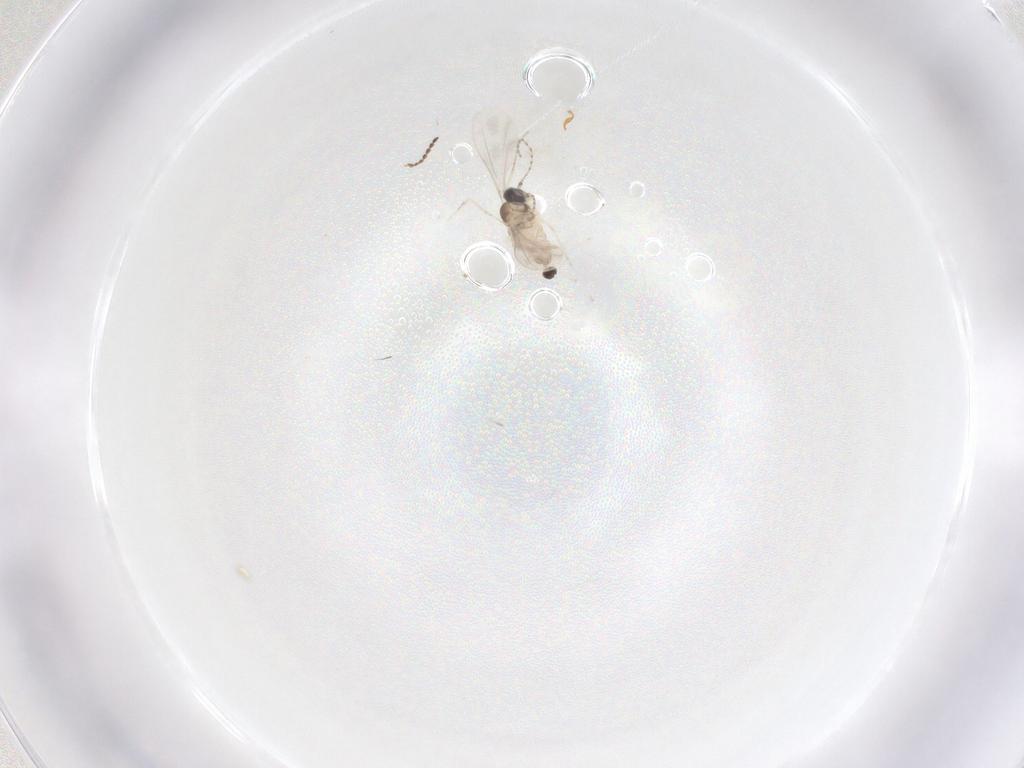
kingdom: Animalia
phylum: Arthropoda
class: Insecta
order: Diptera
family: Cecidomyiidae
